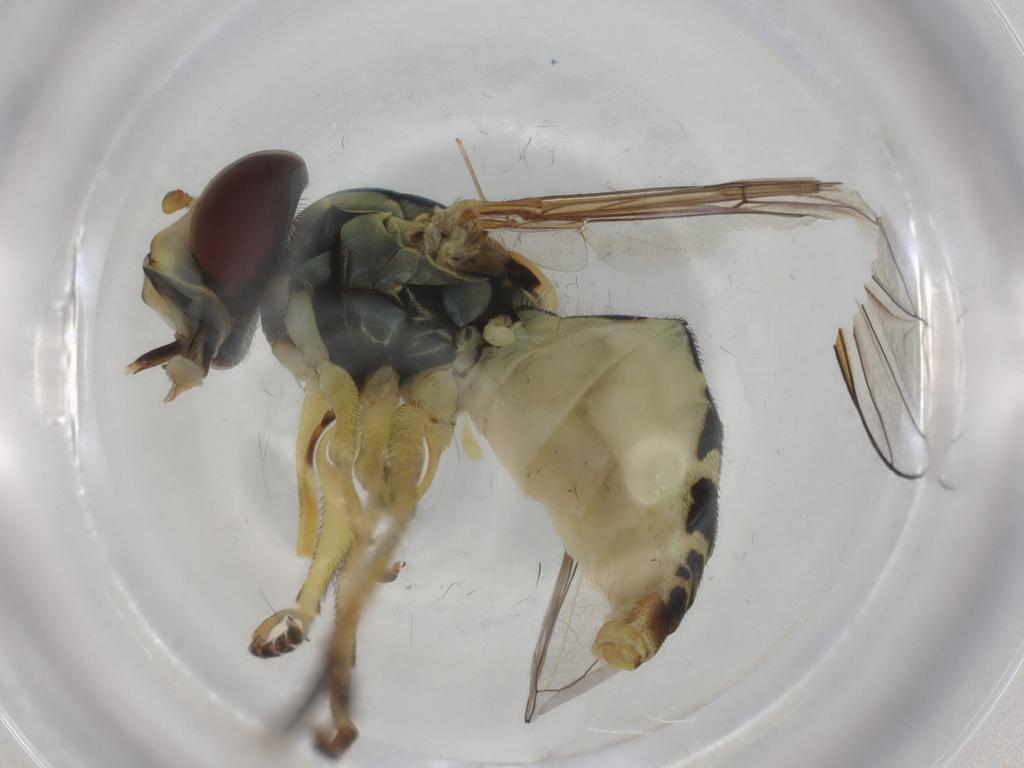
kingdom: Animalia
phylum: Arthropoda
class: Insecta
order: Diptera
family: Syrphidae
